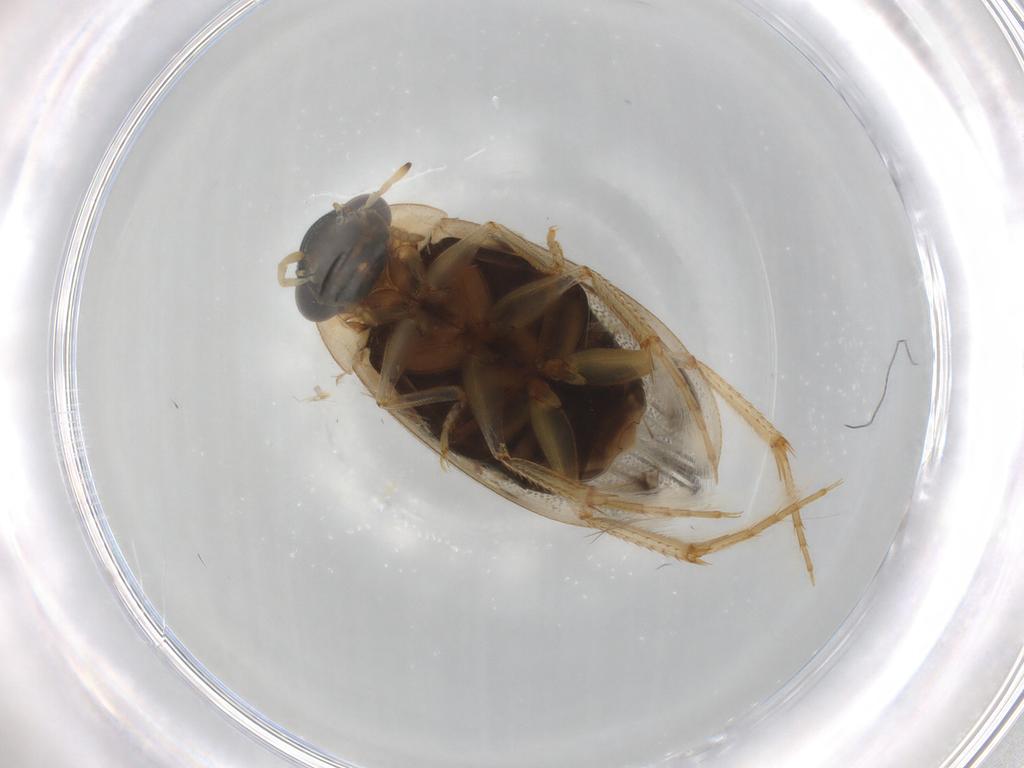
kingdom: Animalia
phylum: Arthropoda
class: Insecta
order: Coleoptera
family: Hydrophilidae
